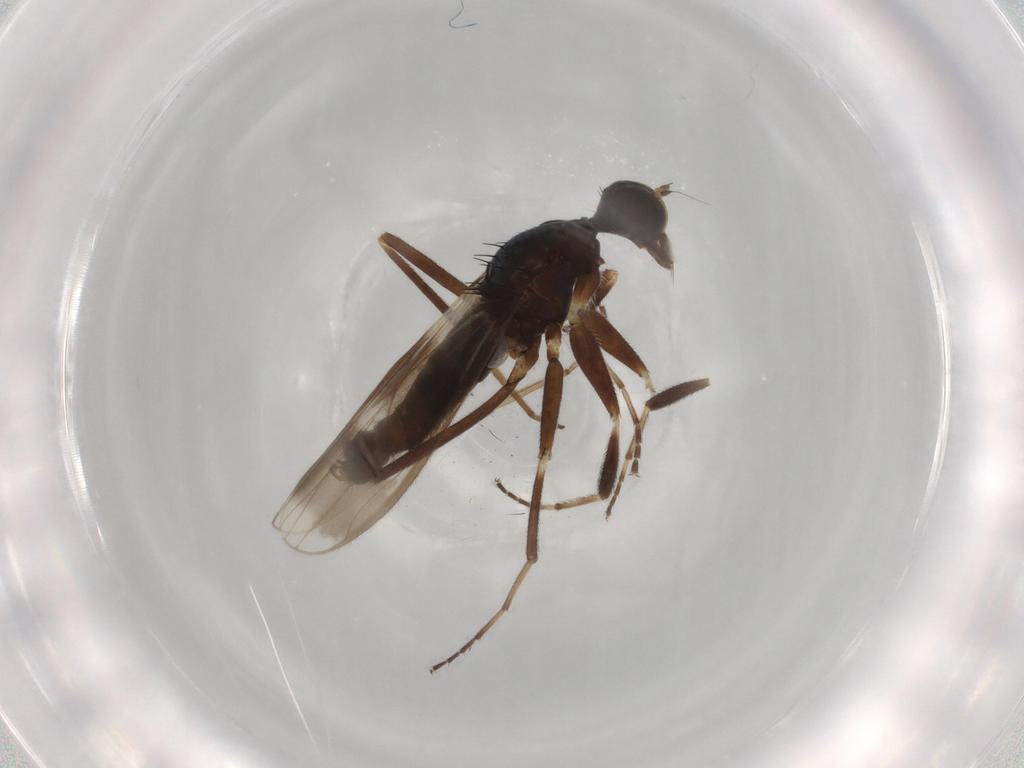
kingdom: Animalia
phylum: Arthropoda
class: Insecta
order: Diptera
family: Hybotidae
